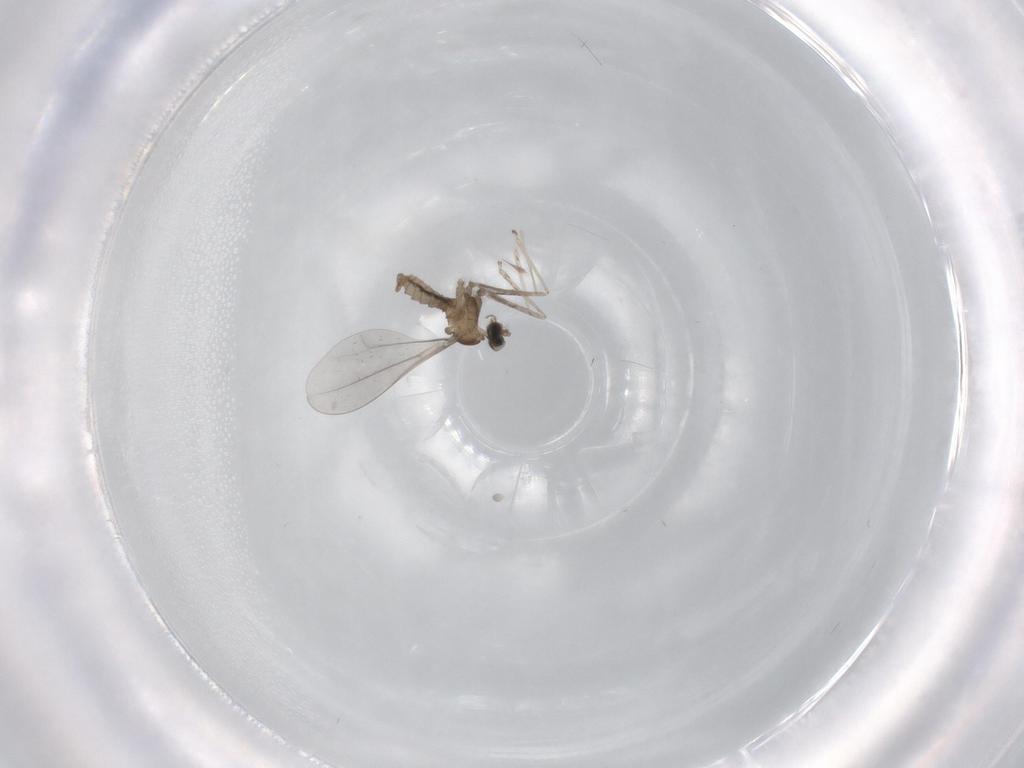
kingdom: Animalia
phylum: Arthropoda
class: Insecta
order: Diptera
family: Cecidomyiidae
